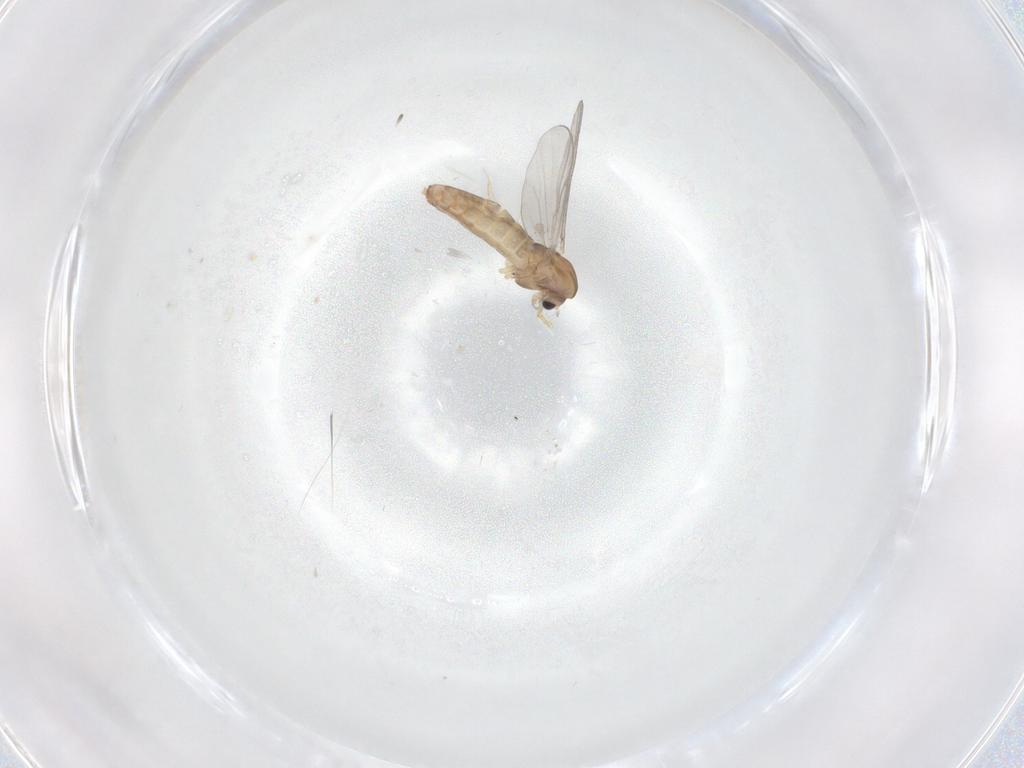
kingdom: Animalia
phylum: Arthropoda
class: Insecta
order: Diptera
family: Chironomidae
